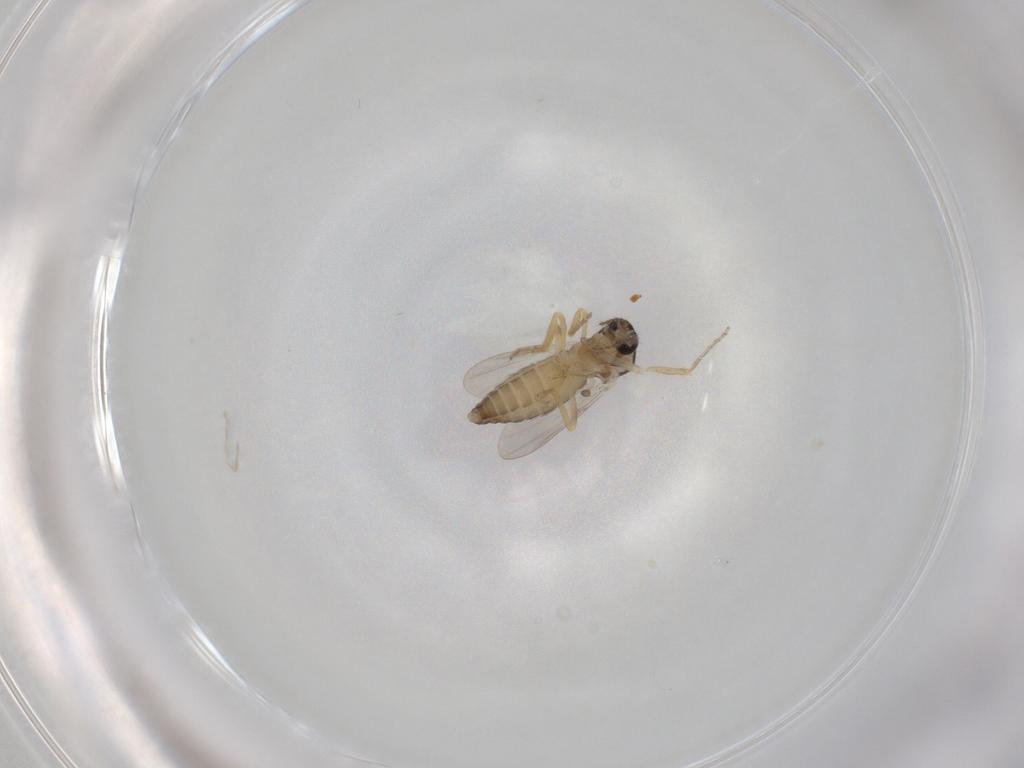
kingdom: Animalia
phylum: Arthropoda
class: Insecta
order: Diptera
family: Ceratopogonidae
